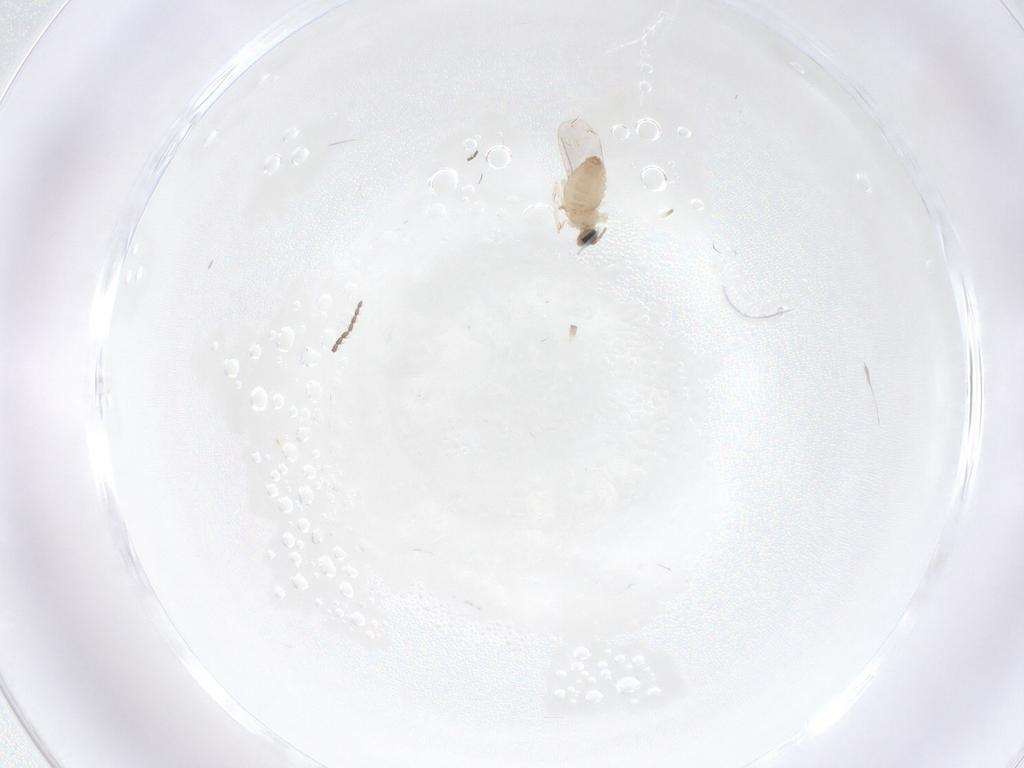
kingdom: Animalia
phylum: Arthropoda
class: Insecta
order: Diptera
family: Cecidomyiidae
